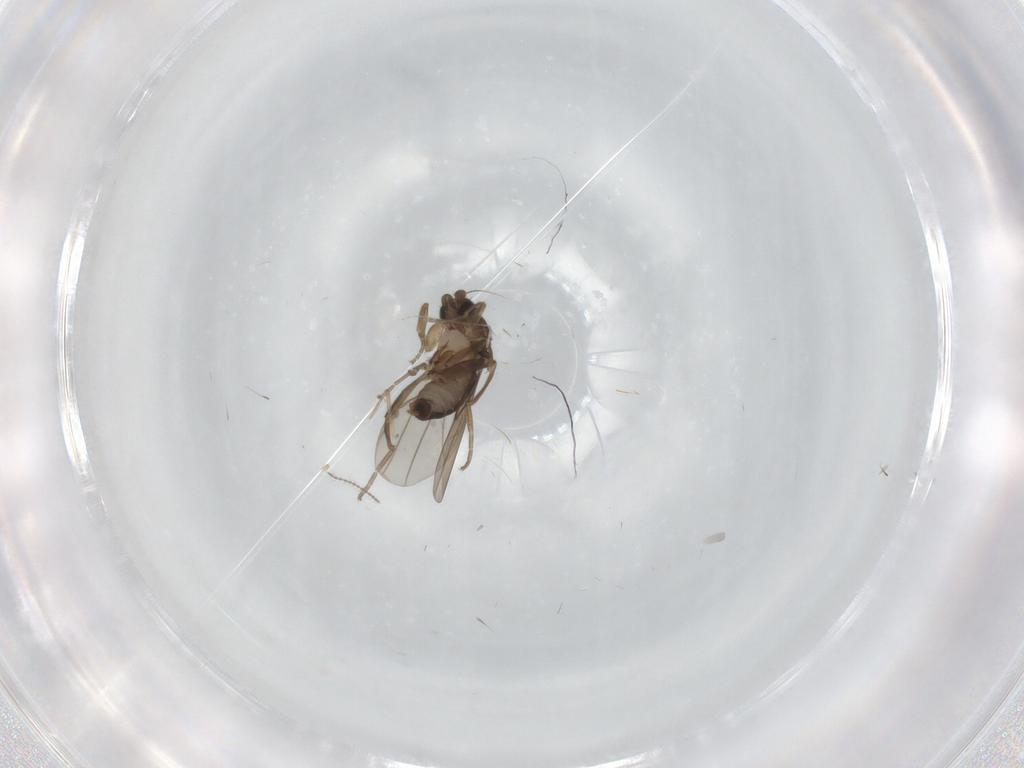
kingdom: Animalia
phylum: Arthropoda
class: Insecta
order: Diptera
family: Ceratopogonidae
